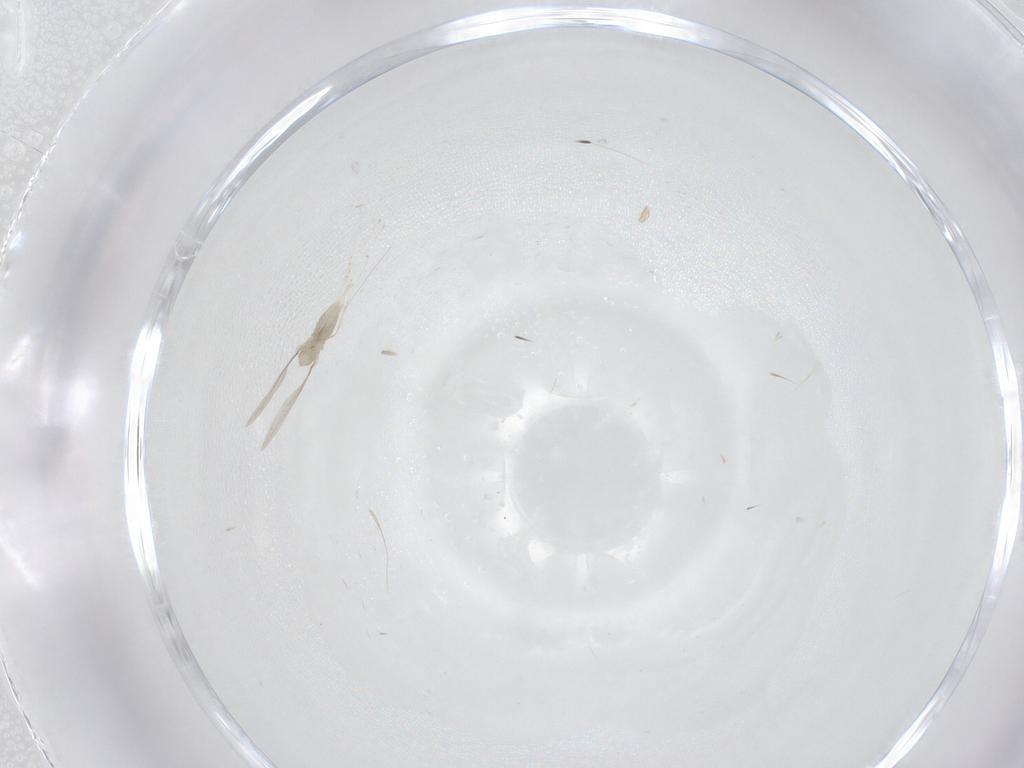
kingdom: Animalia
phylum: Arthropoda
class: Insecta
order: Diptera
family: Cecidomyiidae
